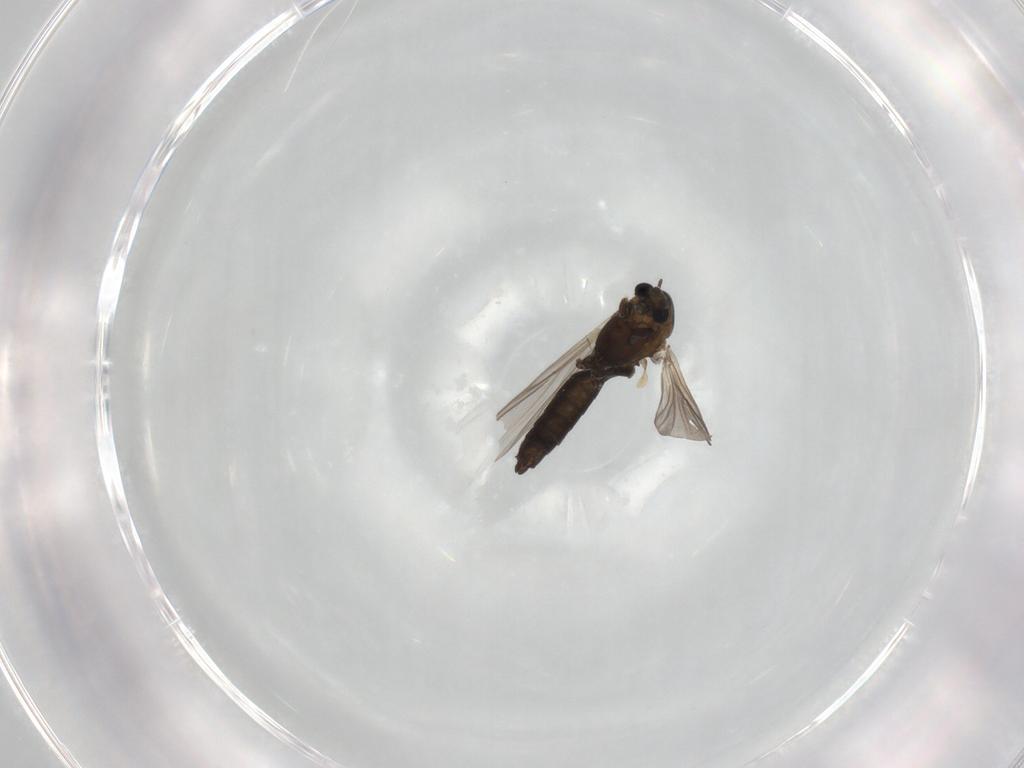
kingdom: Animalia
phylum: Arthropoda
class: Insecta
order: Diptera
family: Chironomidae
